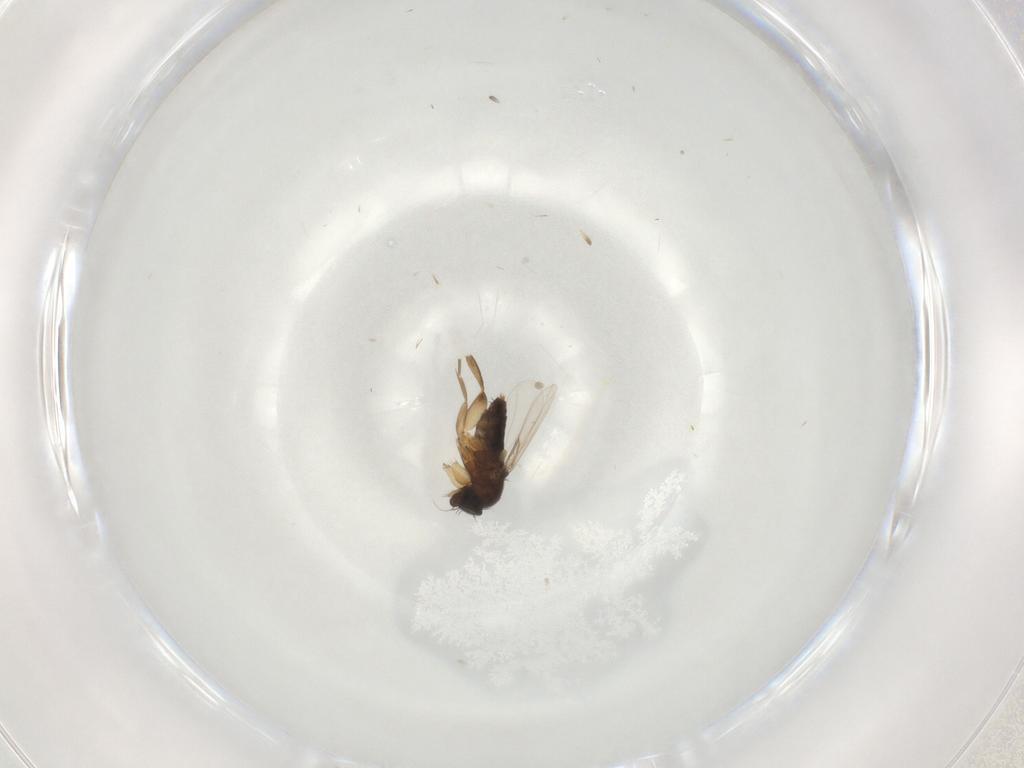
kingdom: Animalia
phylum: Arthropoda
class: Insecta
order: Diptera
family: Phoridae
